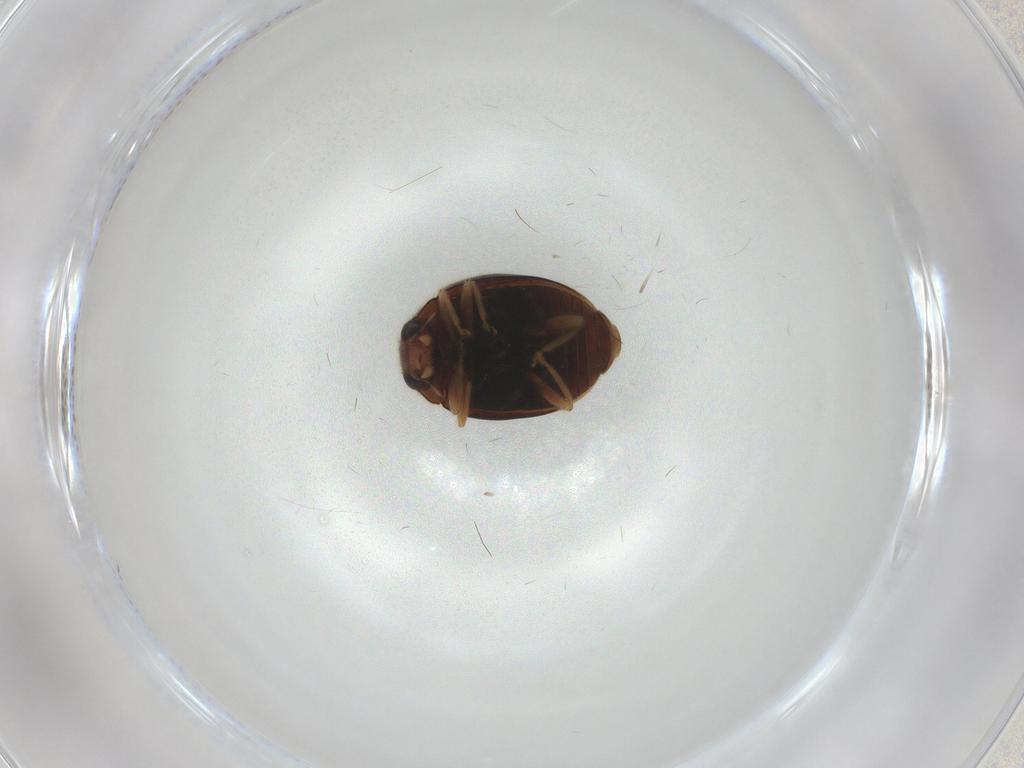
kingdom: Animalia
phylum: Arthropoda
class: Insecta
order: Coleoptera
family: Coccinellidae
